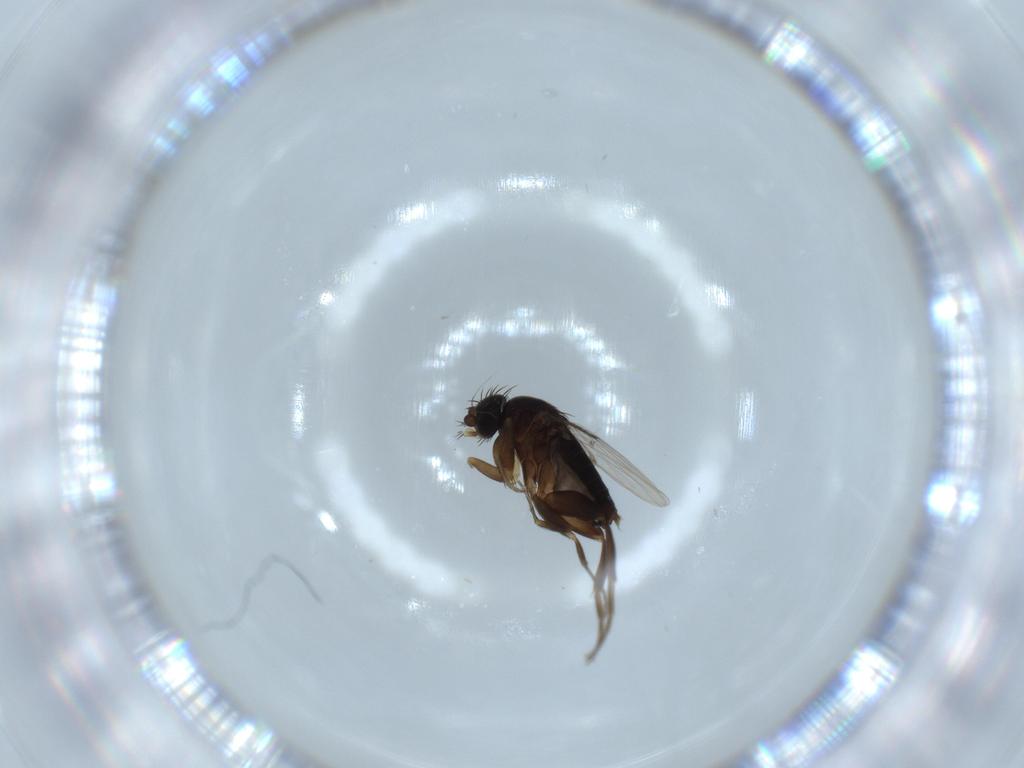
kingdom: Animalia
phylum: Arthropoda
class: Insecta
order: Diptera
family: Phoridae
